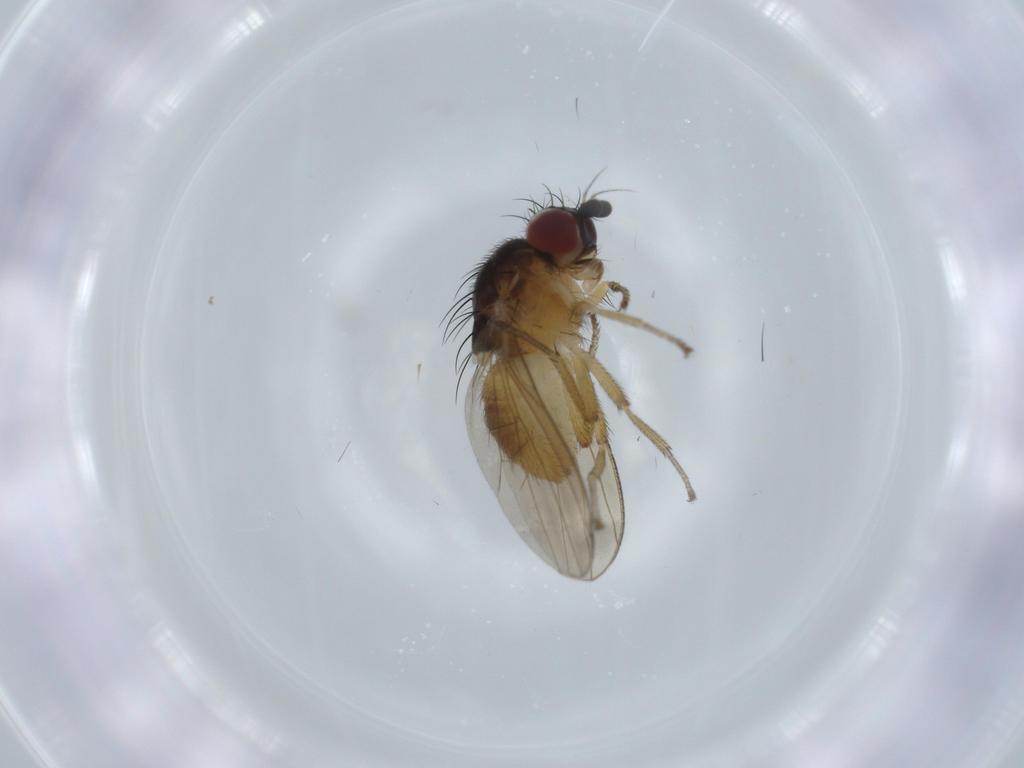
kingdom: Animalia
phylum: Arthropoda
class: Insecta
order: Diptera
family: Lauxaniidae
